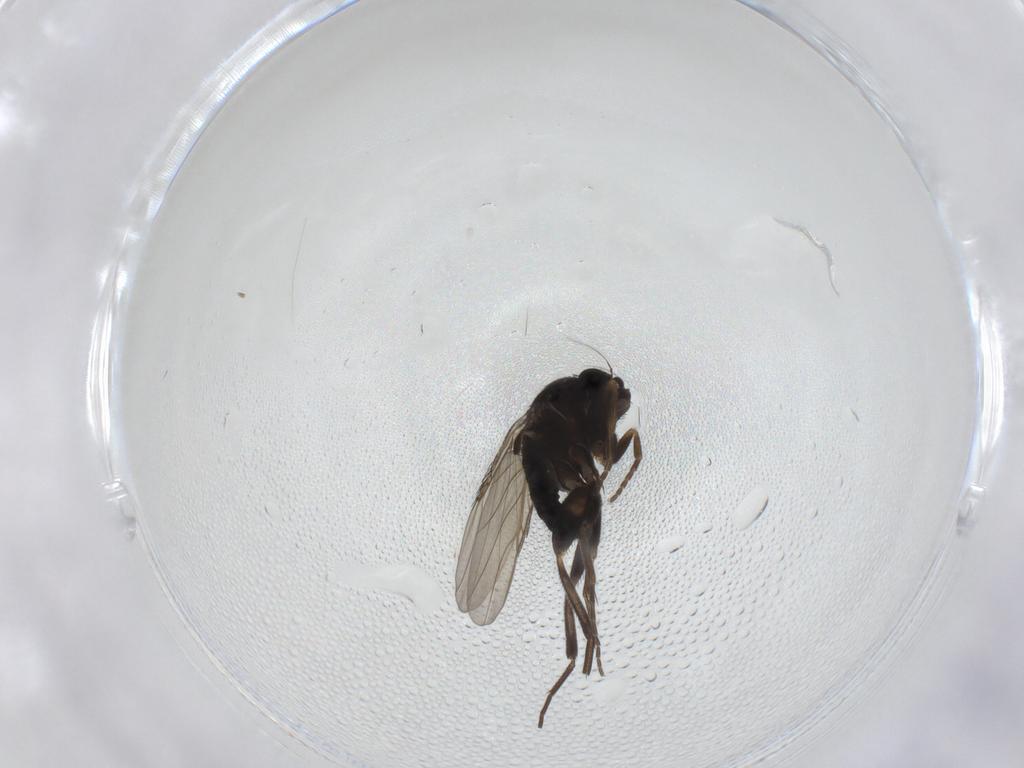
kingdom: Animalia
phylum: Arthropoda
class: Insecta
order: Diptera
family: Phoridae
